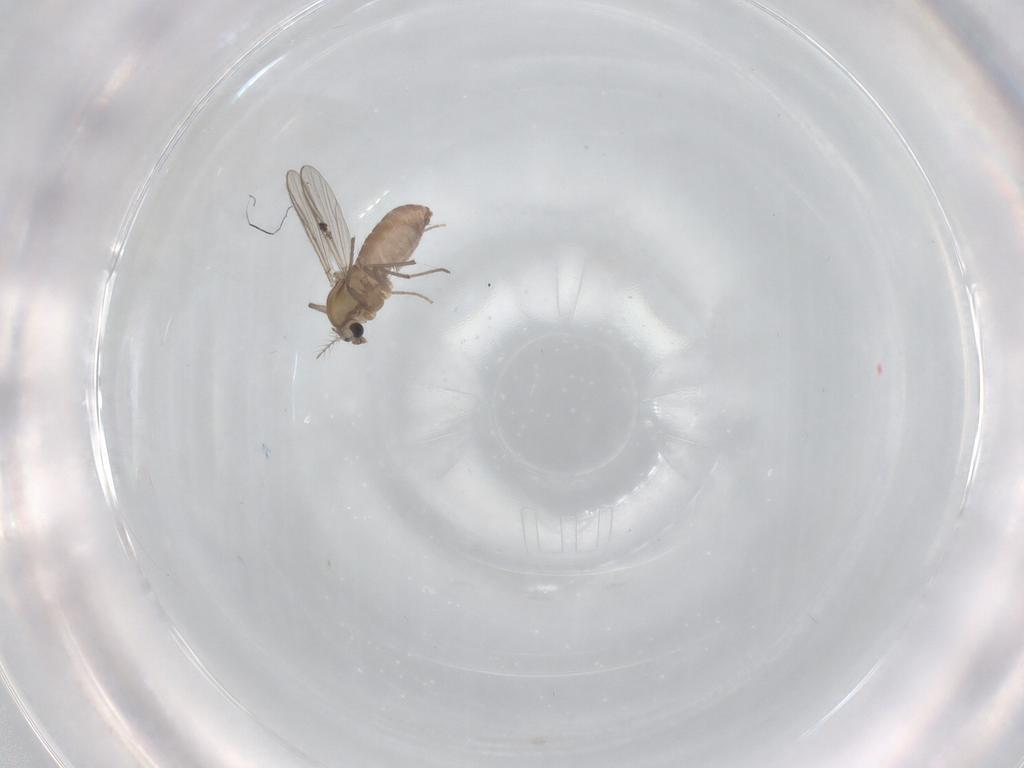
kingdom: Animalia
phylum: Arthropoda
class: Insecta
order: Diptera
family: Chironomidae
